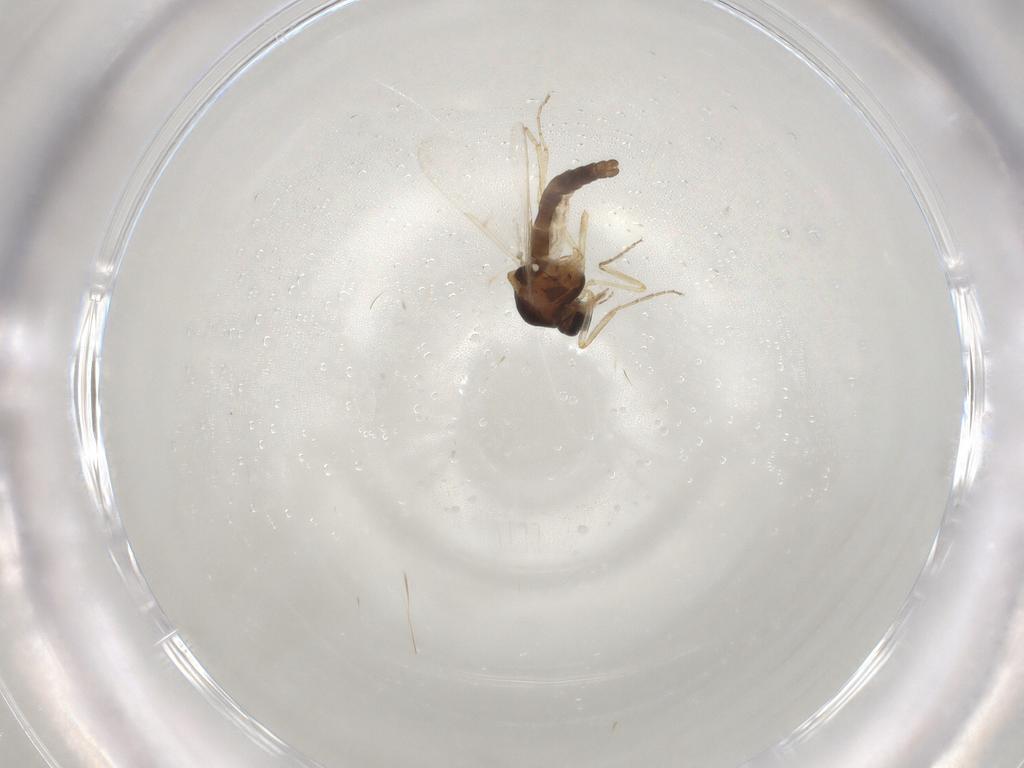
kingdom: Animalia
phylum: Arthropoda
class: Insecta
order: Diptera
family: Ceratopogonidae
